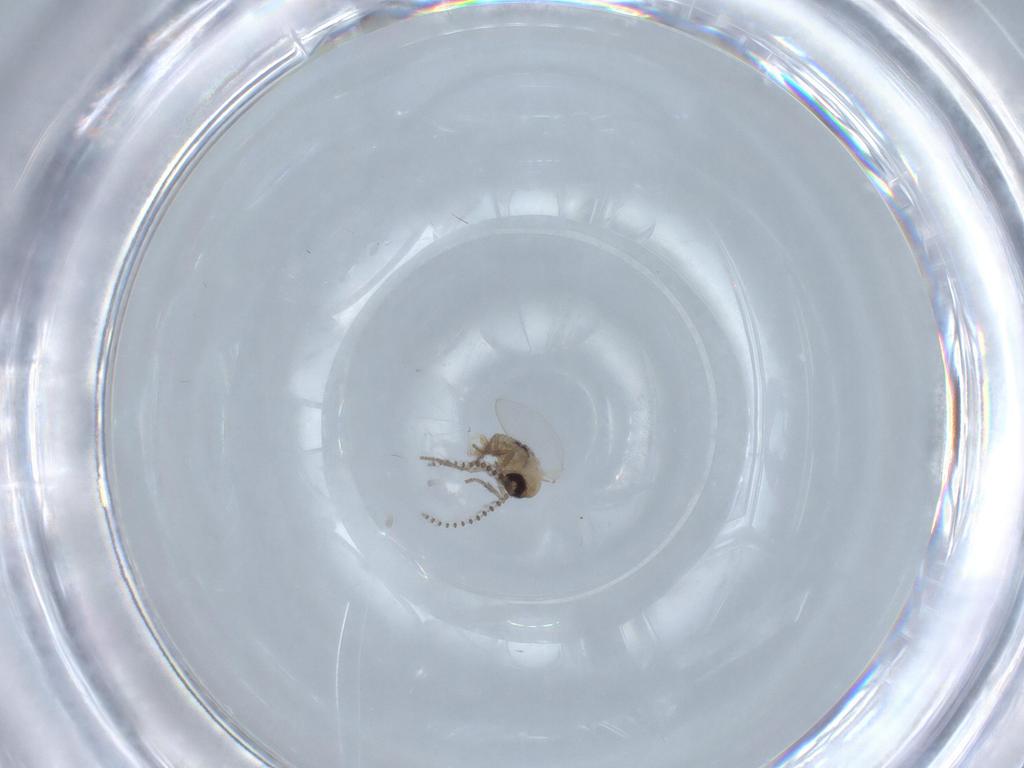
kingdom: Animalia
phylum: Arthropoda
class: Insecta
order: Diptera
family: Psychodidae
